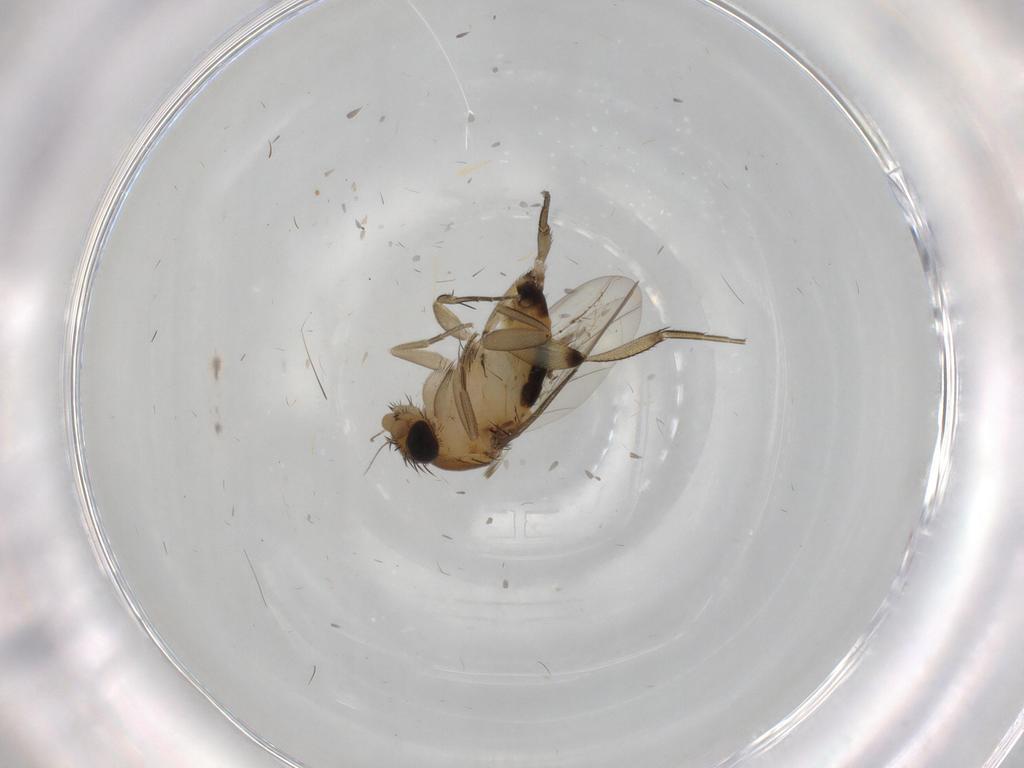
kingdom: Animalia
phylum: Arthropoda
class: Insecta
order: Diptera
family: Phoridae
